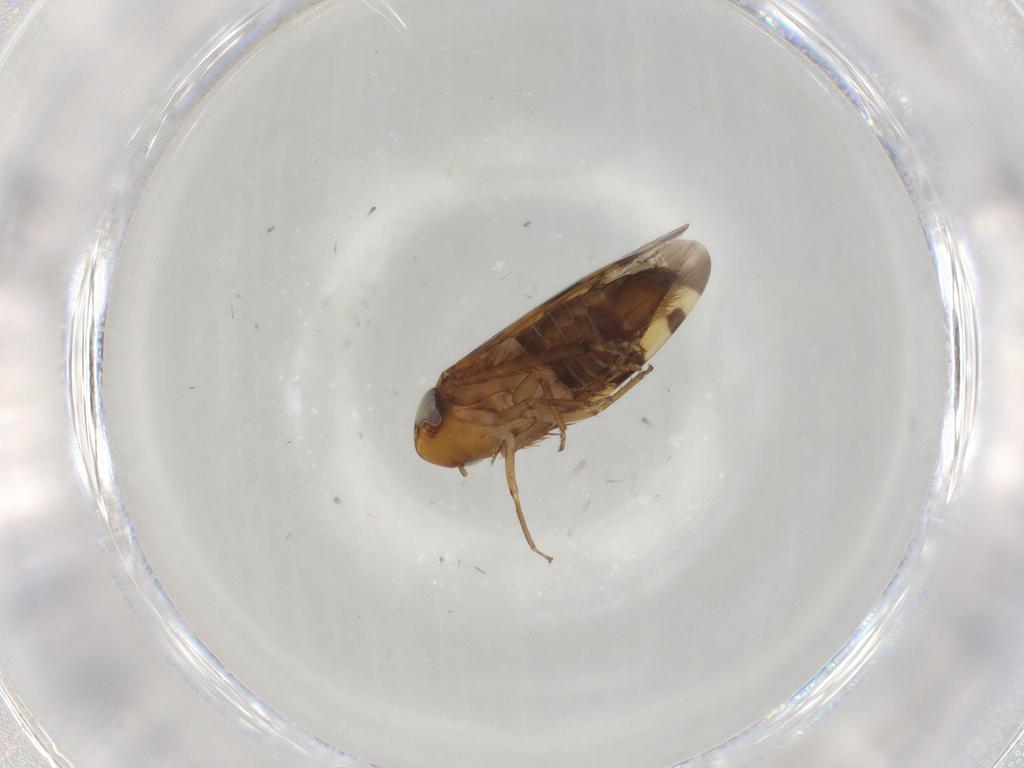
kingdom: Animalia
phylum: Arthropoda
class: Insecta
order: Hemiptera
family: Cicadellidae
